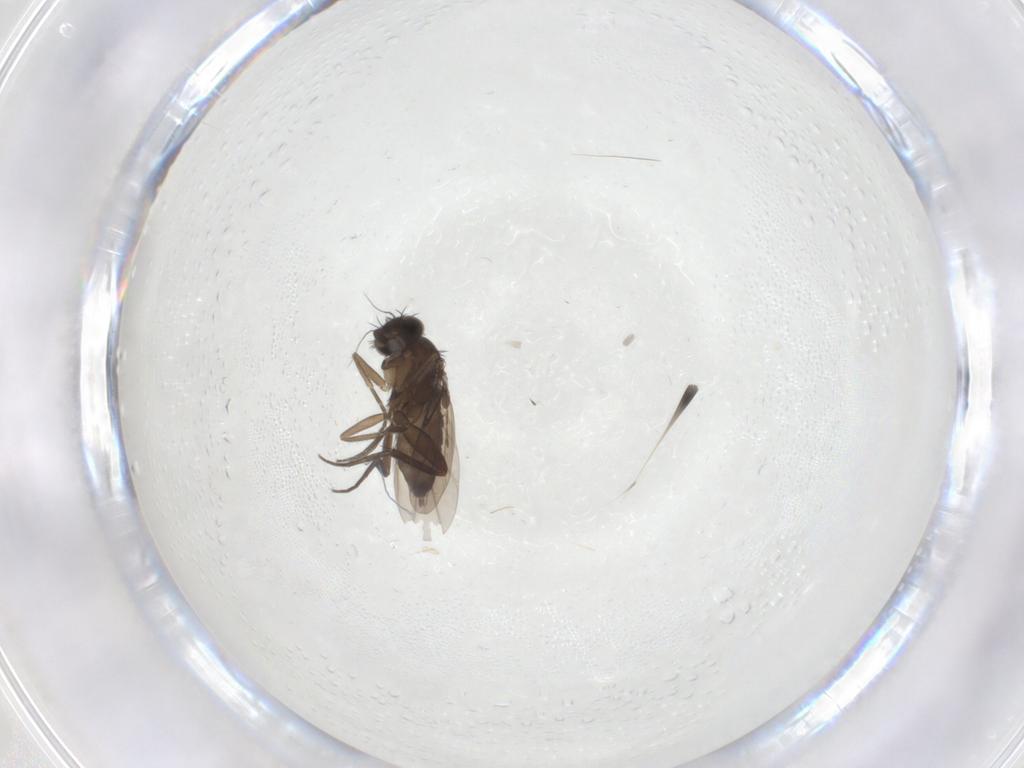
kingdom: Animalia
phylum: Arthropoda
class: Insecta
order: Diptera
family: Phoridae
